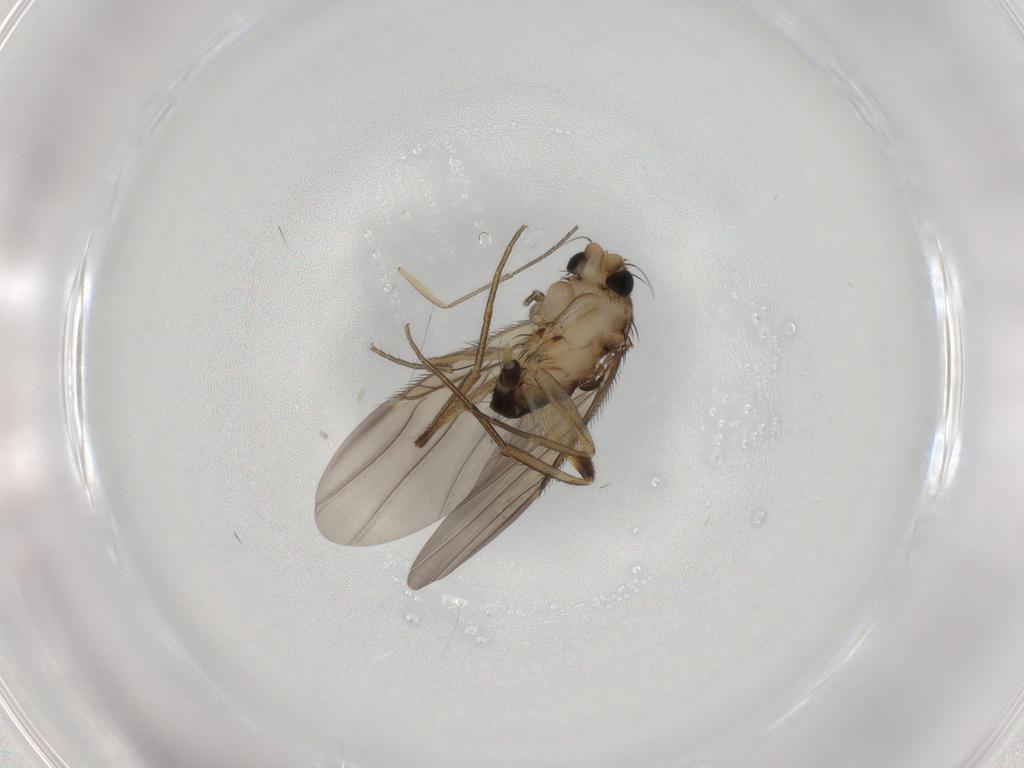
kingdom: Animalia
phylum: Arthropoda
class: Insecta
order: Diptera
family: Phoridae
